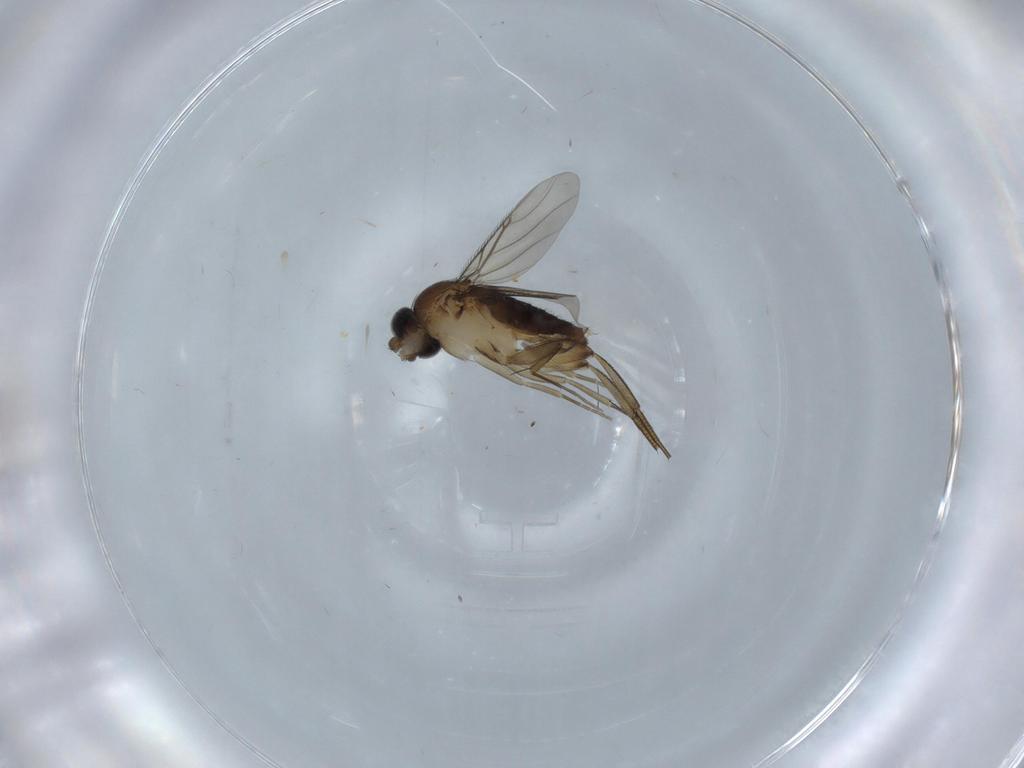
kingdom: Animalia
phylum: Arthropoda
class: Insecta
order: Diptera
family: Phoridae
